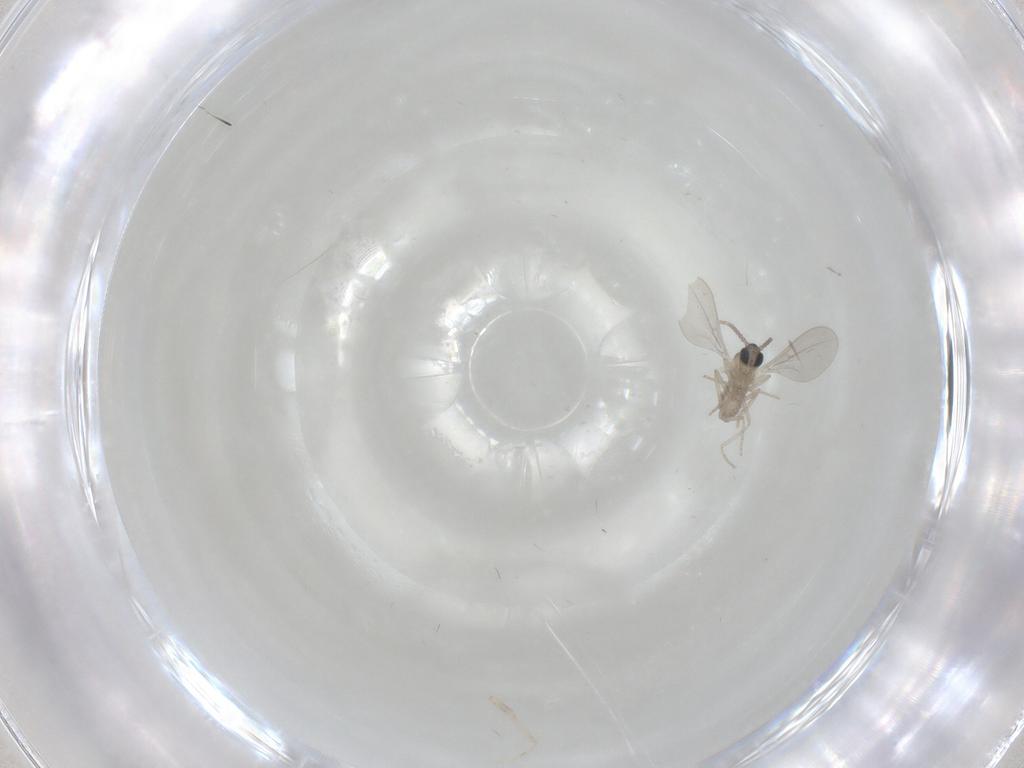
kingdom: Animalia
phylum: Arthropoda
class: Insecta
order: Diptera
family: Cecidomyiidae
